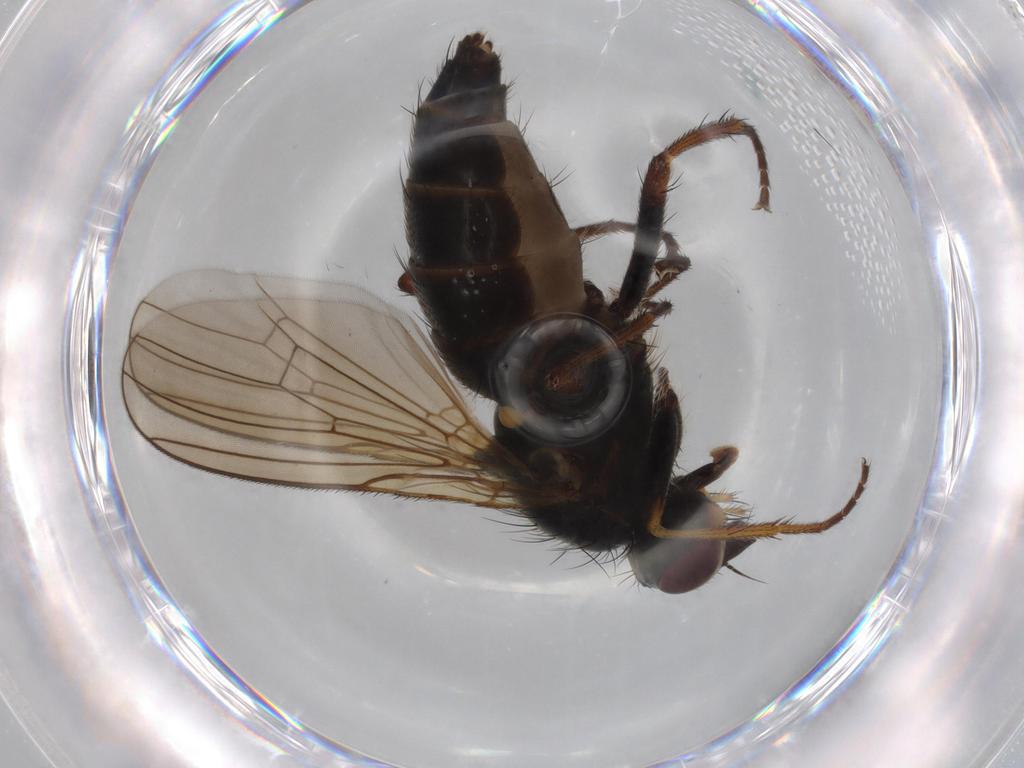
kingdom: Animalia
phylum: Arthropoda
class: Insecta
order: Diptera
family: Scathophagidae
